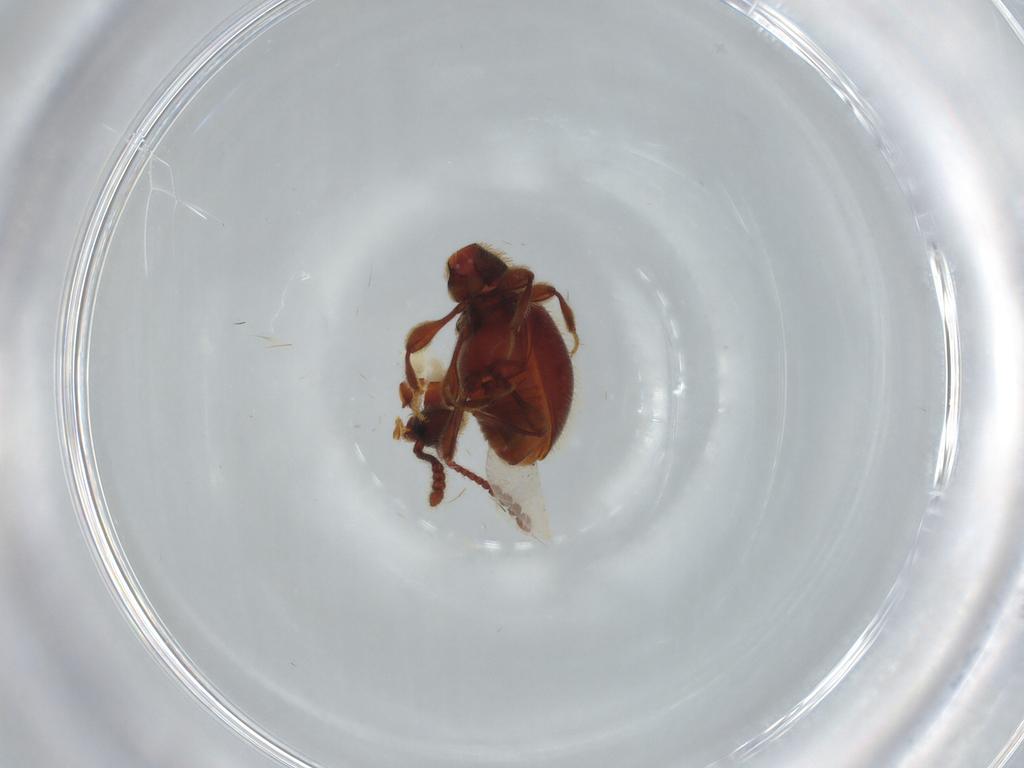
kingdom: Animalia
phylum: Arthropoda
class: Insecta
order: Coleoptera
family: Staphylinidae
